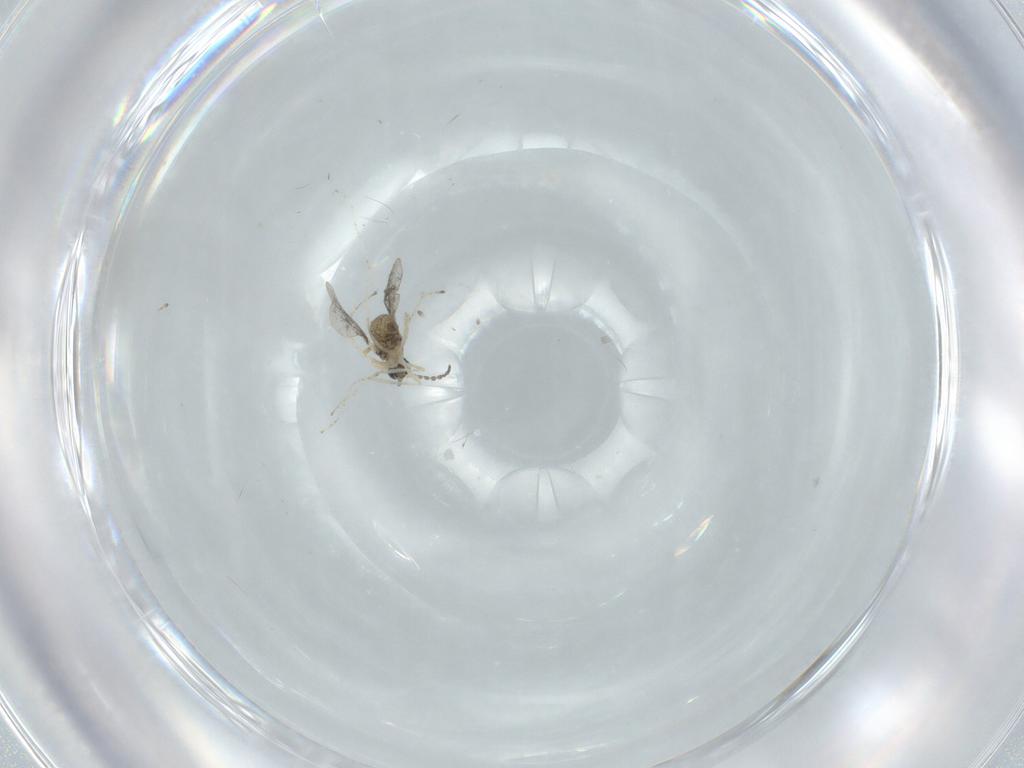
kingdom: Animalia
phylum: Arthropoda
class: Insecta
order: Diptera
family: Sciaridae
